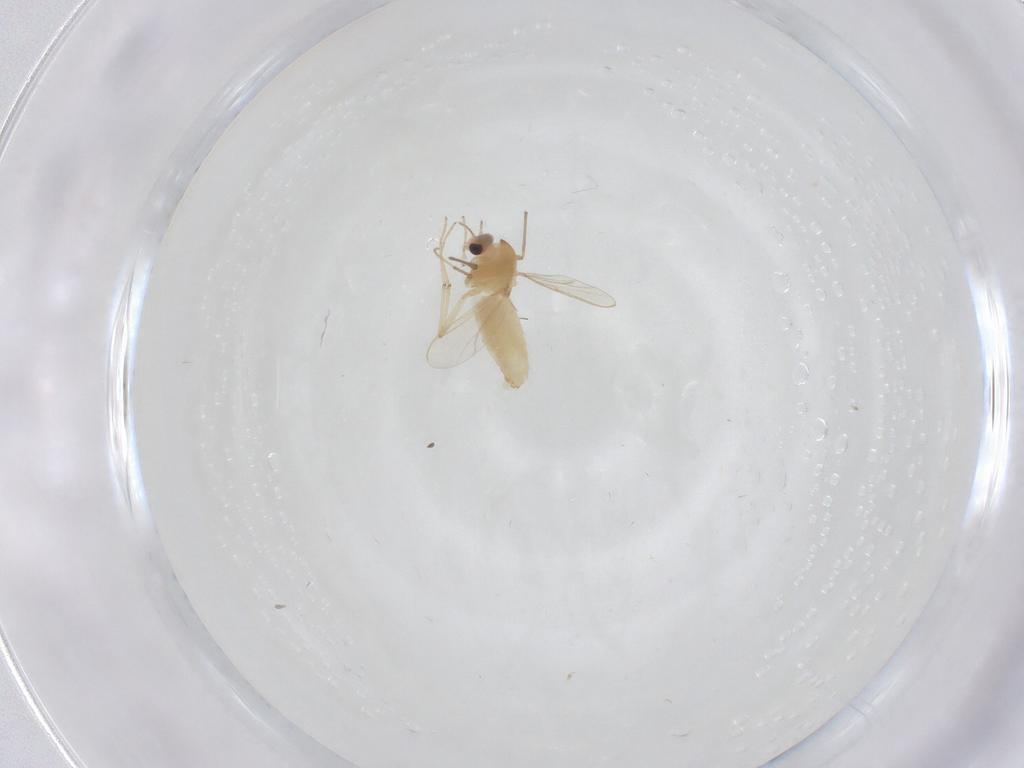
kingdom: Animalia
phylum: Arthropoda
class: Insecta
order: Diptera
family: Chironomidae
